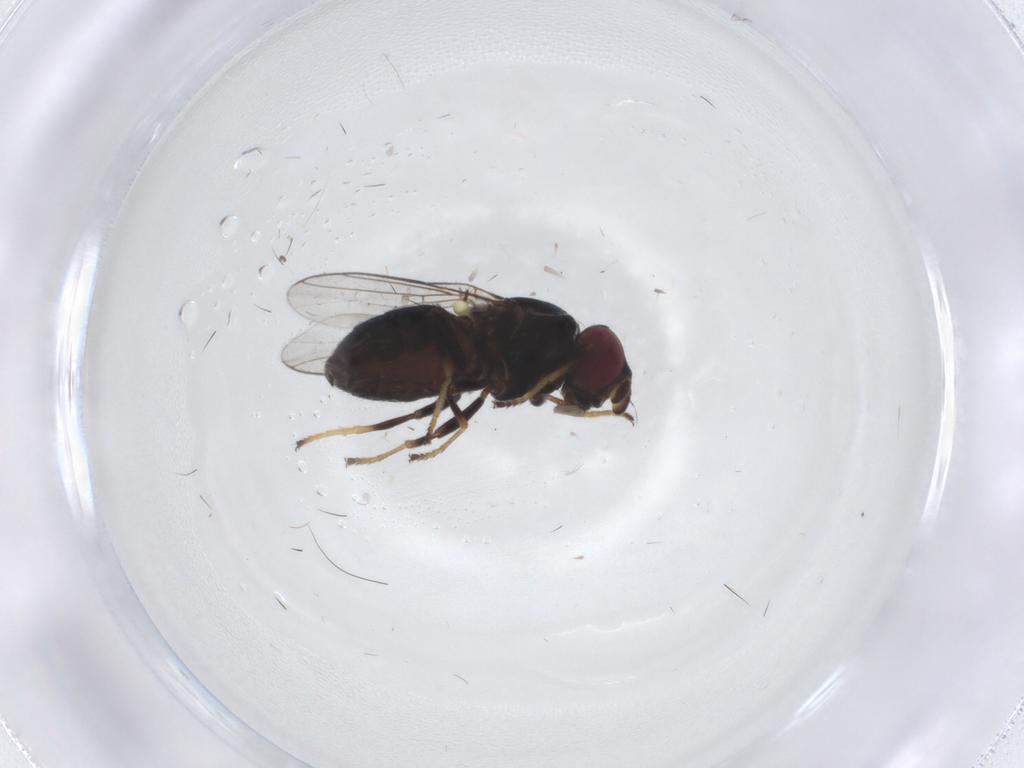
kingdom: Animalia
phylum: Arthropoda
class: Insecta
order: Diptera
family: Chloropidae
